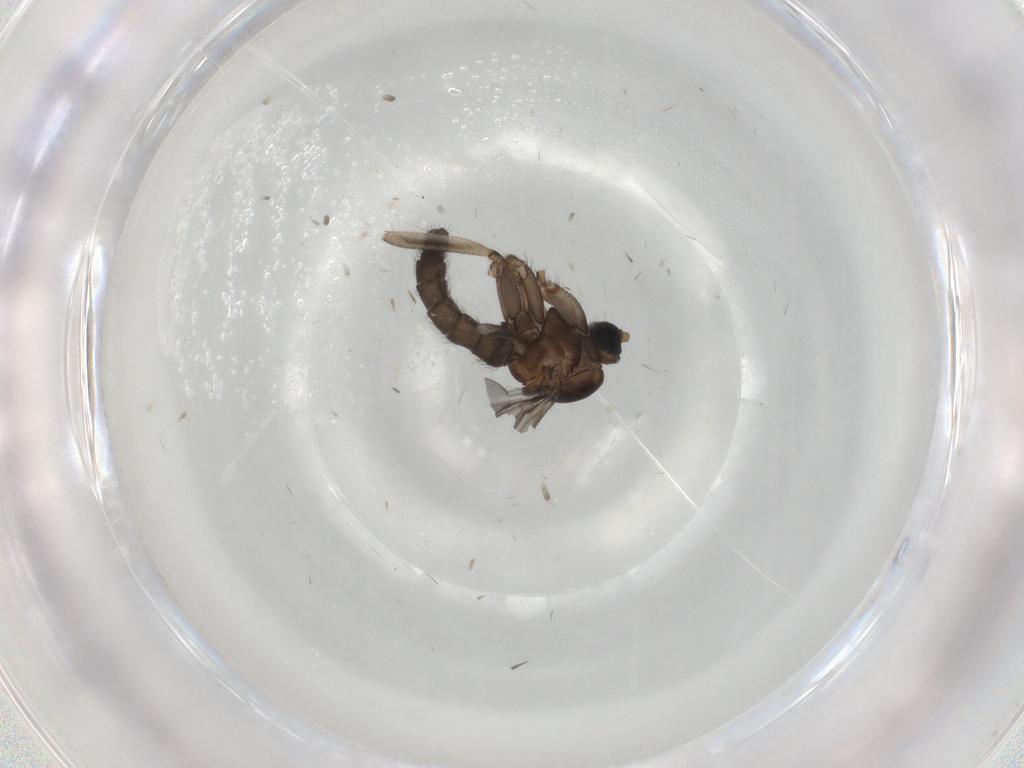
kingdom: Animalia
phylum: Arthropoda
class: Insecta
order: Diptera
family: Sciaridae
